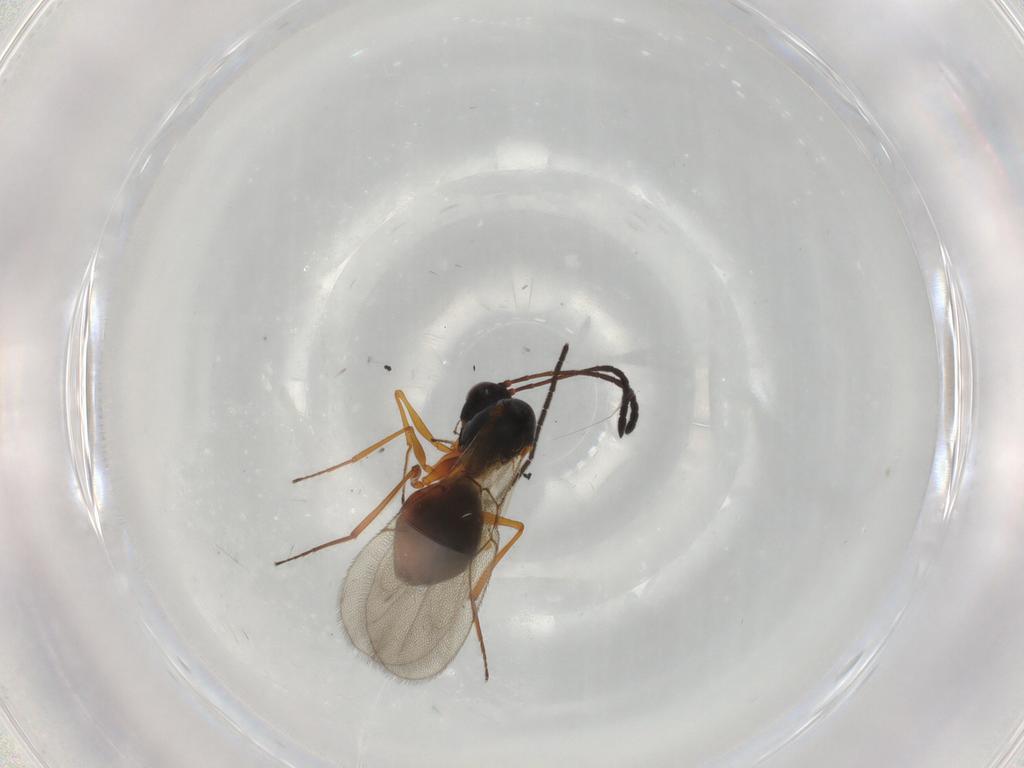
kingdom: Animalia
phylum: Arthropoda
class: Insecta
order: Hymenoptera
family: Figitidae
